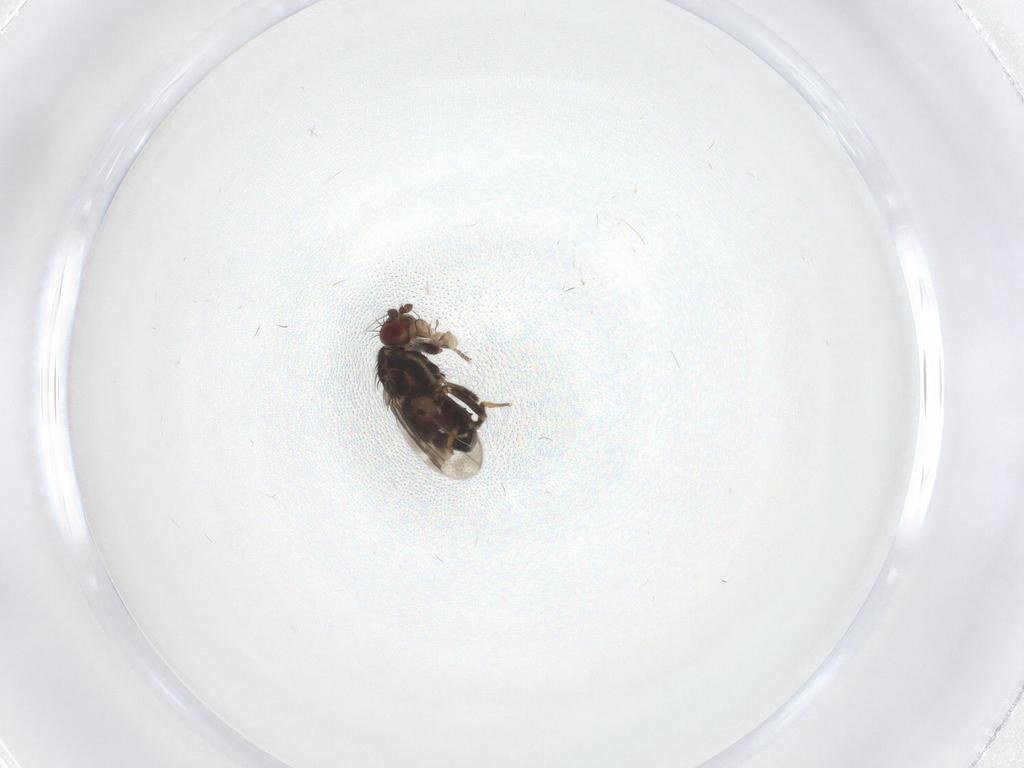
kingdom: Animalia
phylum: Arthropoda
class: Insecta
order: Diptera
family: Sphaeroceridae
